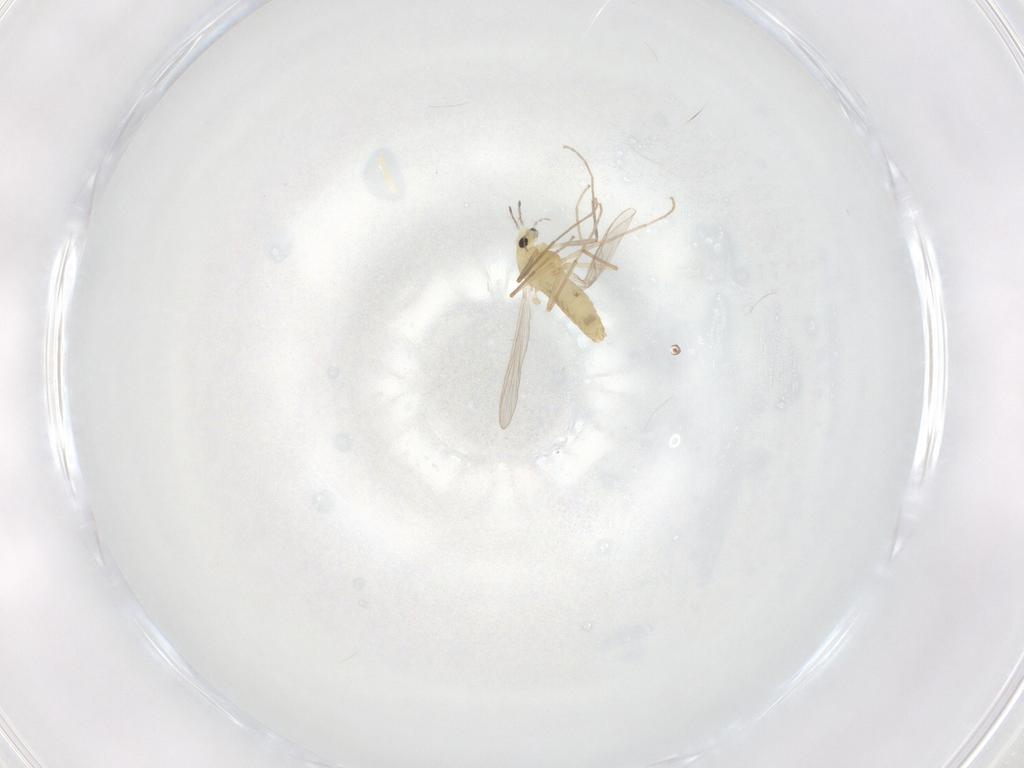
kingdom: Animalia
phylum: Arthropoda
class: Insecta
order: Diptera
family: Chironomidae
